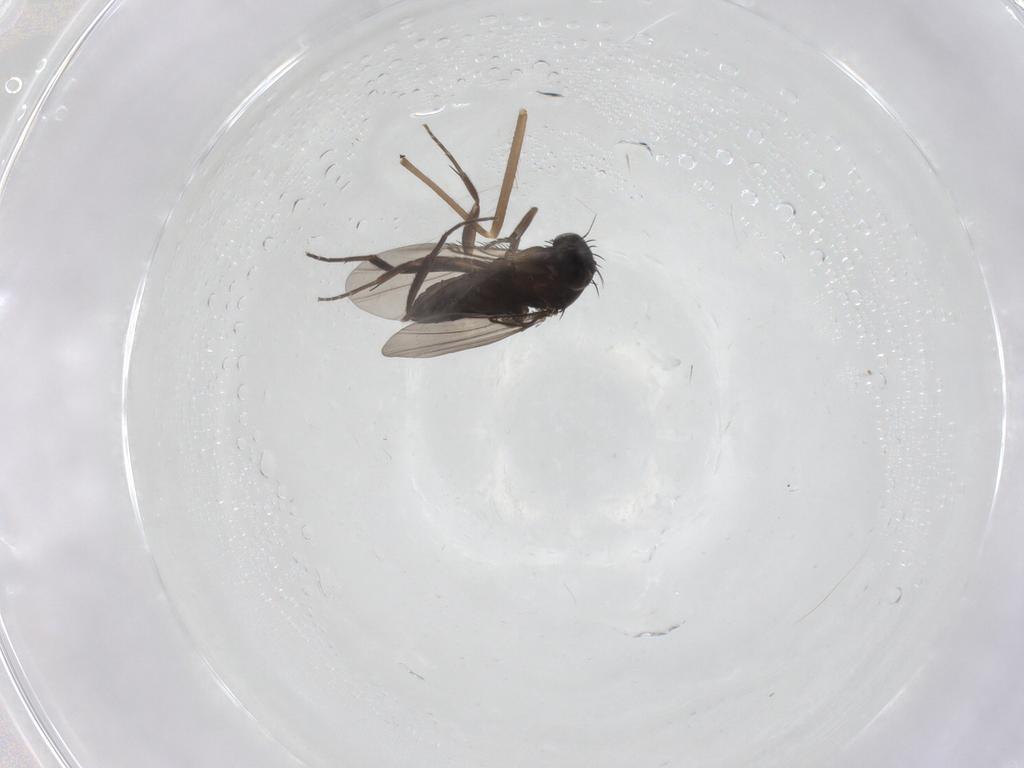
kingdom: Animalia
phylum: Arthropoda
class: Insecta
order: Diptera
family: Chironomidae
